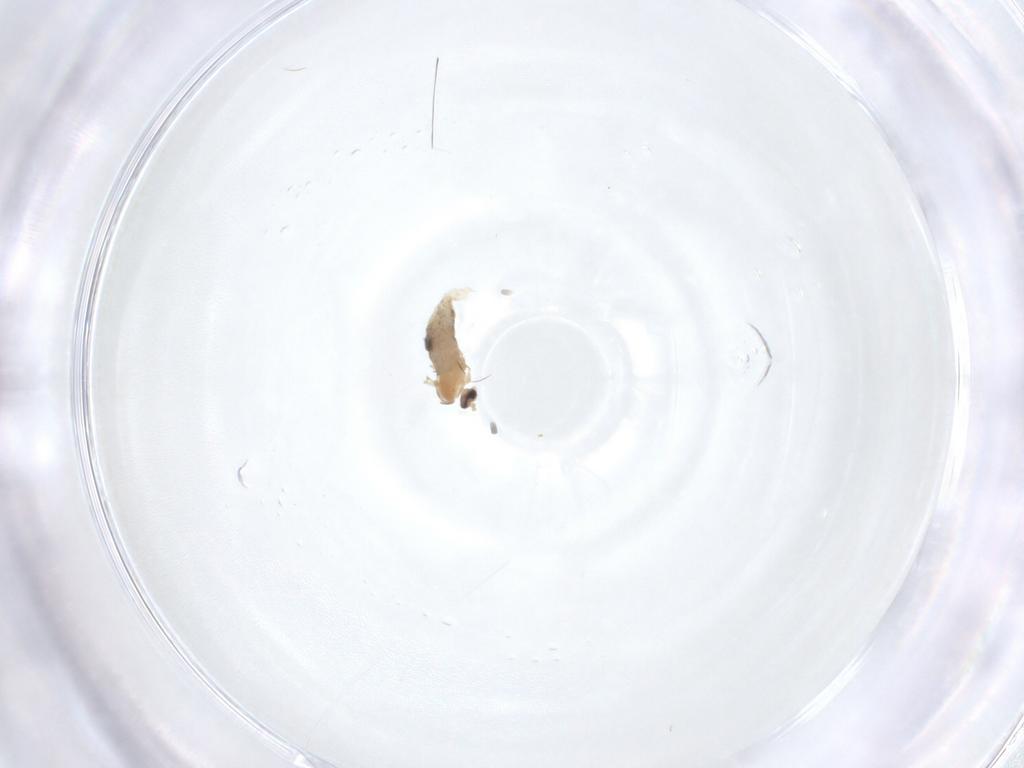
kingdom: Animalia
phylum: Arthropoda
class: Insecta
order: Diptera
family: Cecidomyiidae
